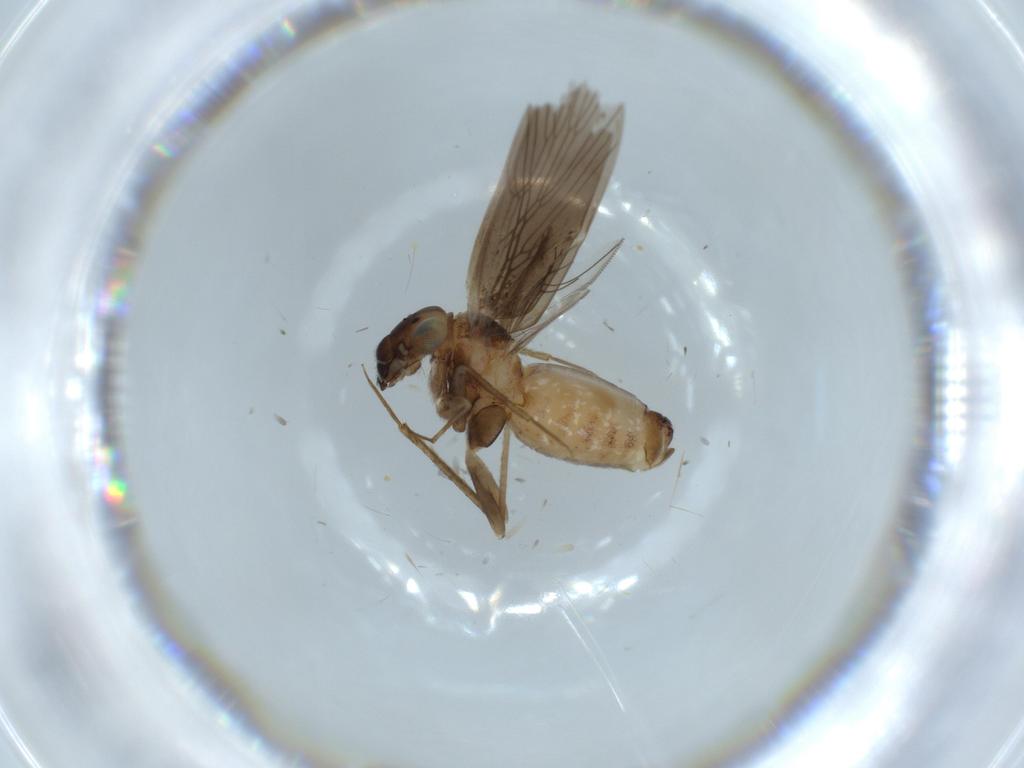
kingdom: Animalia
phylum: Arthropoda
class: Insecta
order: Psocodea
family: Lepidopsocidae
